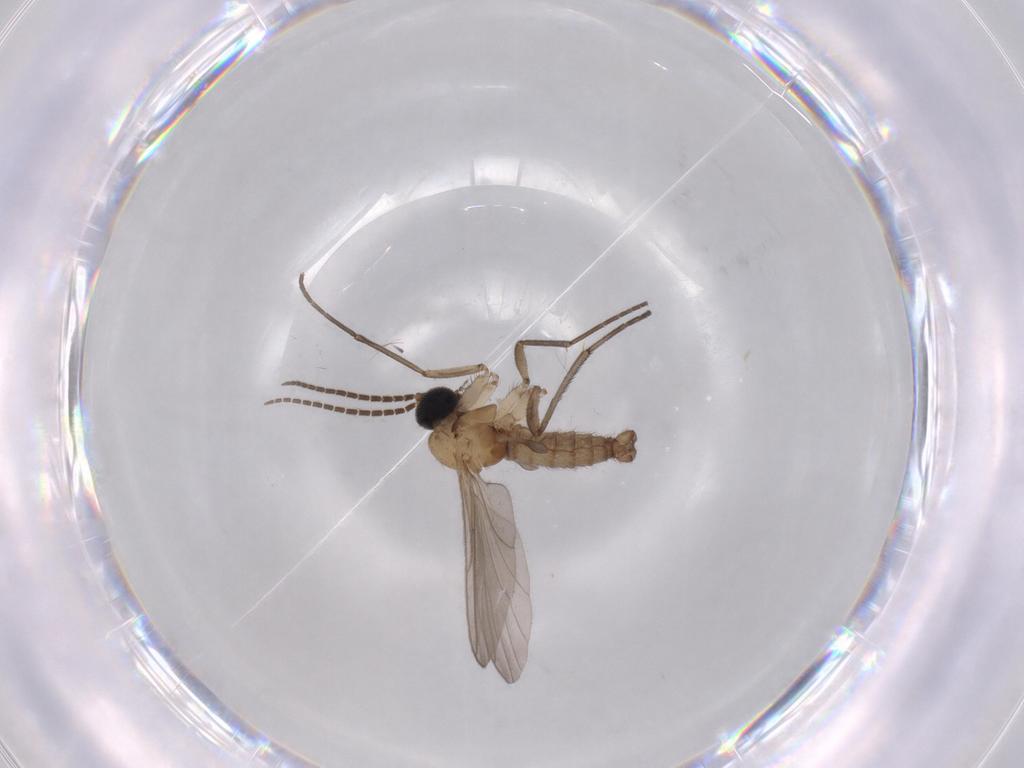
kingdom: Animalia
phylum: Arthropoda
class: Insecta
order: Diptera
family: Sciaridae
